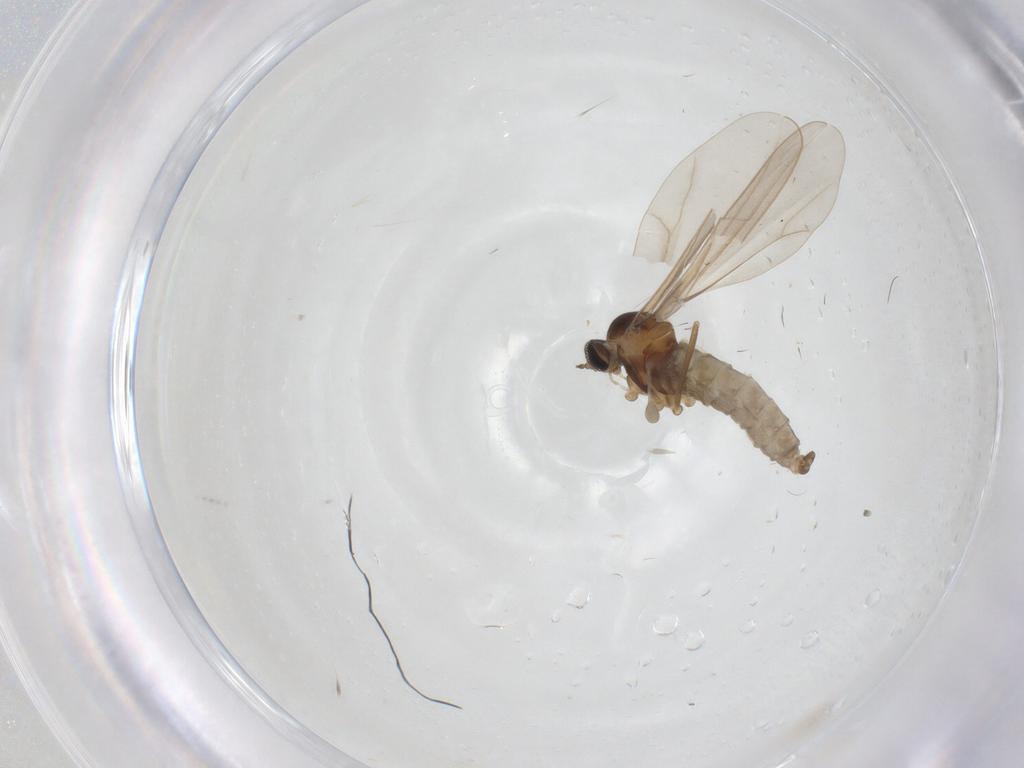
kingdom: Animalia
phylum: Arthropoda
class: Insecta
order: Diptera
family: Cecidomyiidae
